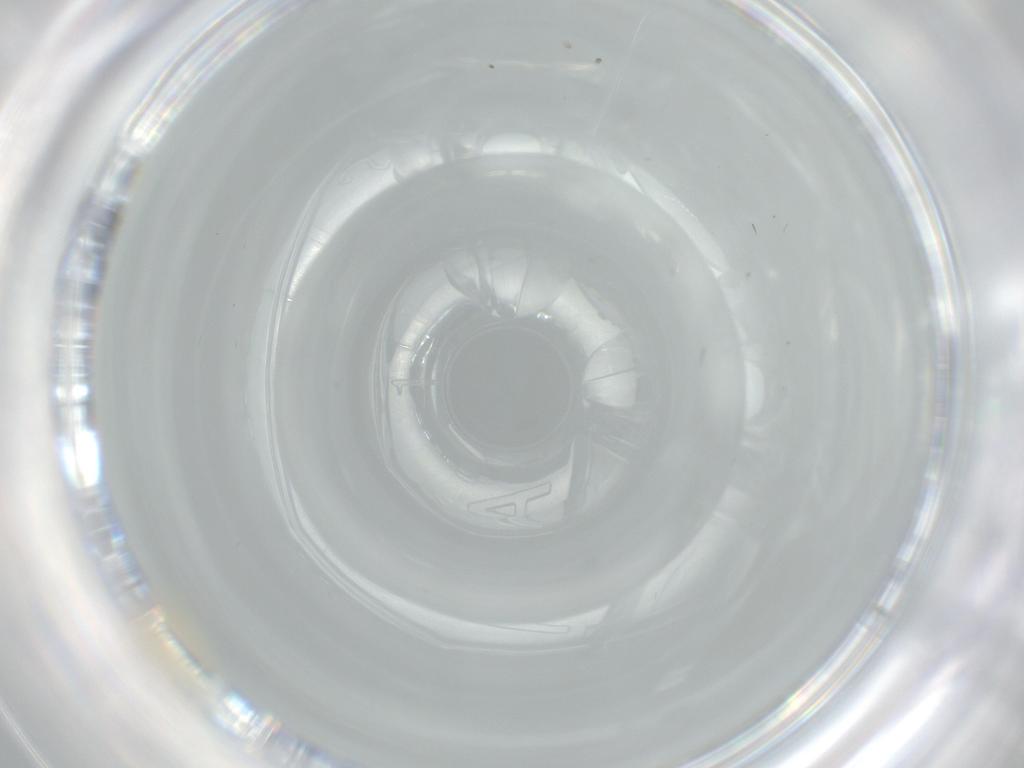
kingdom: Animalia
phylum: Arthropoda
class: Insecta
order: Diptera
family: Cecidomyiidae
